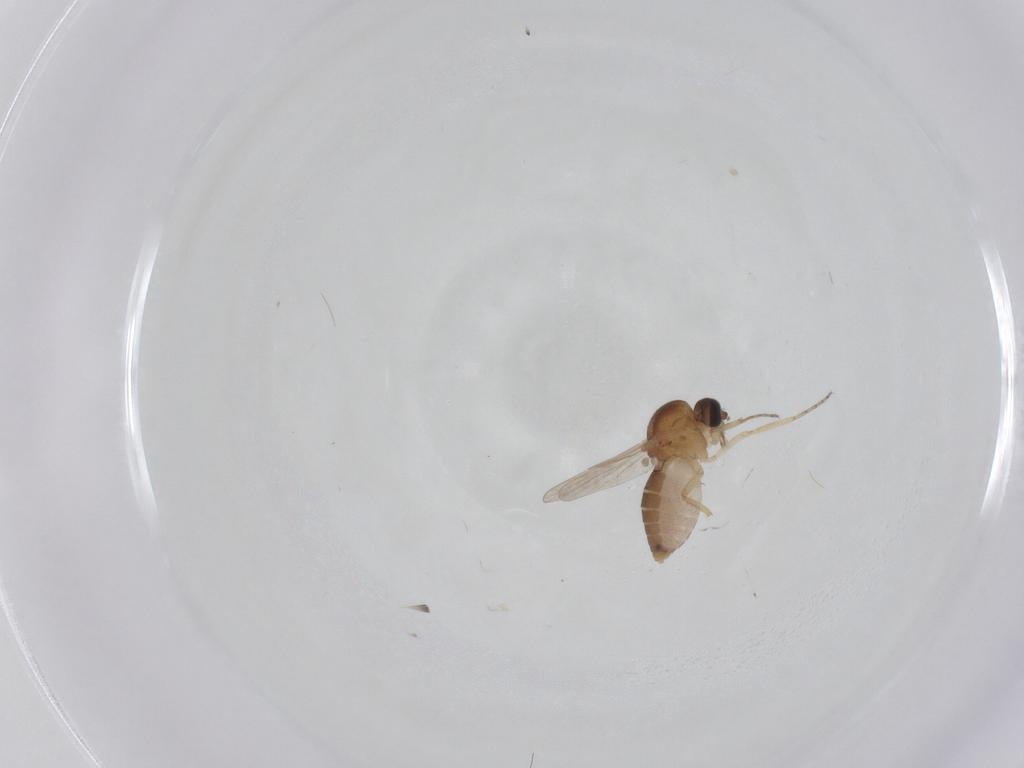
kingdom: Animalia
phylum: Arthropoda
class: Insecta
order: Diptera
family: Ceratopogonidae
